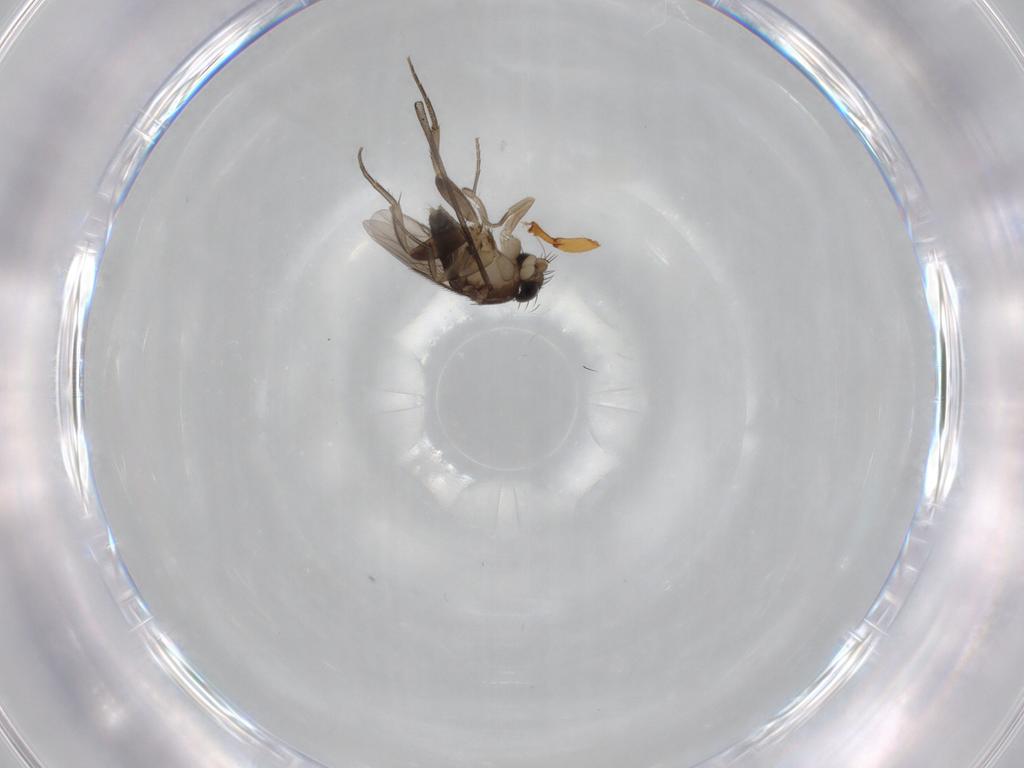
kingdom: Animalia
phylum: Arthropoda
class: Insecta
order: Diptera
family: Phoridae
